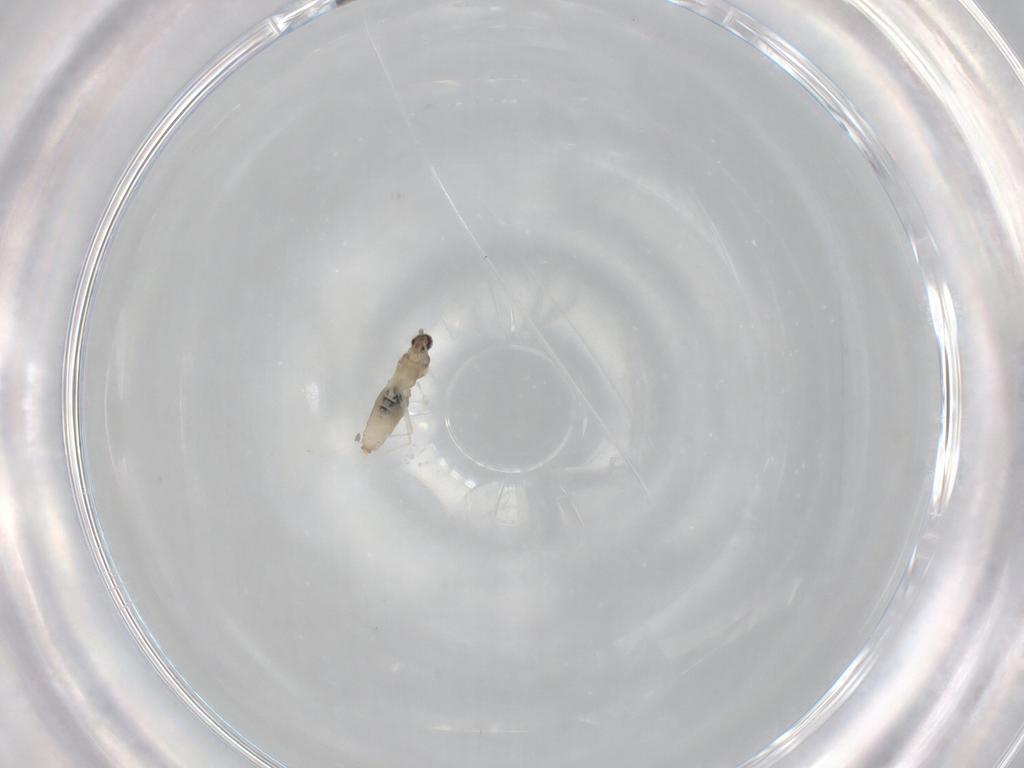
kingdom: Animalia
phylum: Arthropoda
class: Insecta
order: Diptera
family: Cecidomyiidae
